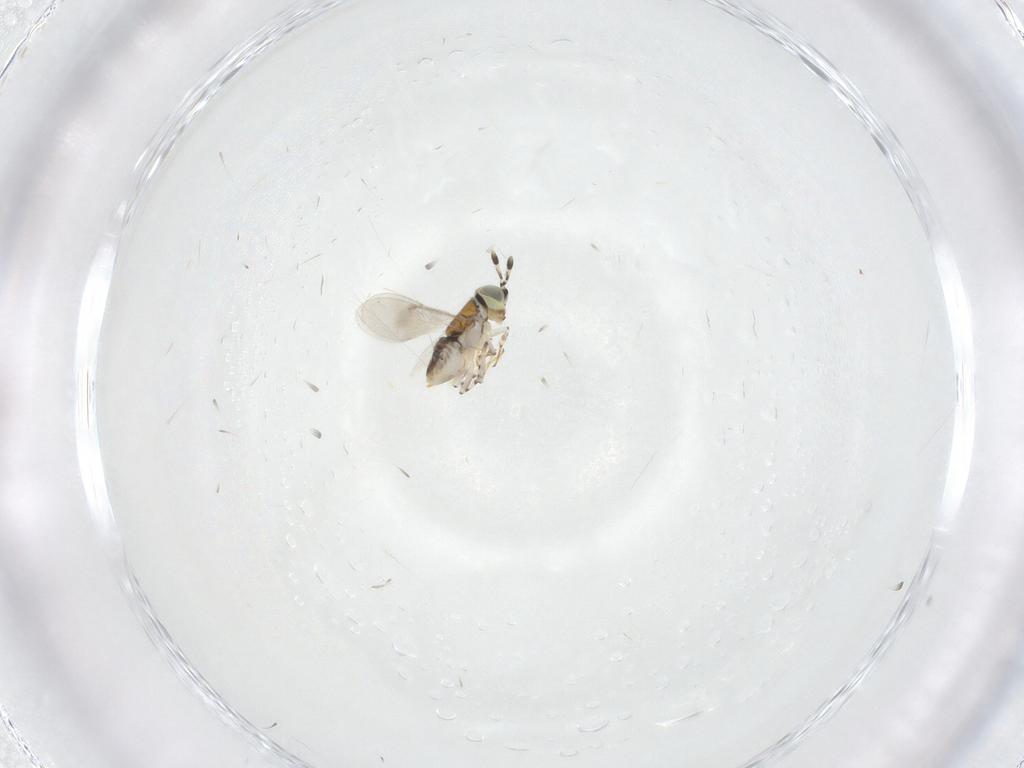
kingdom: Animalia
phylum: Arthropoda
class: Insecta
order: Hymenoptera
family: Encyrtidae
